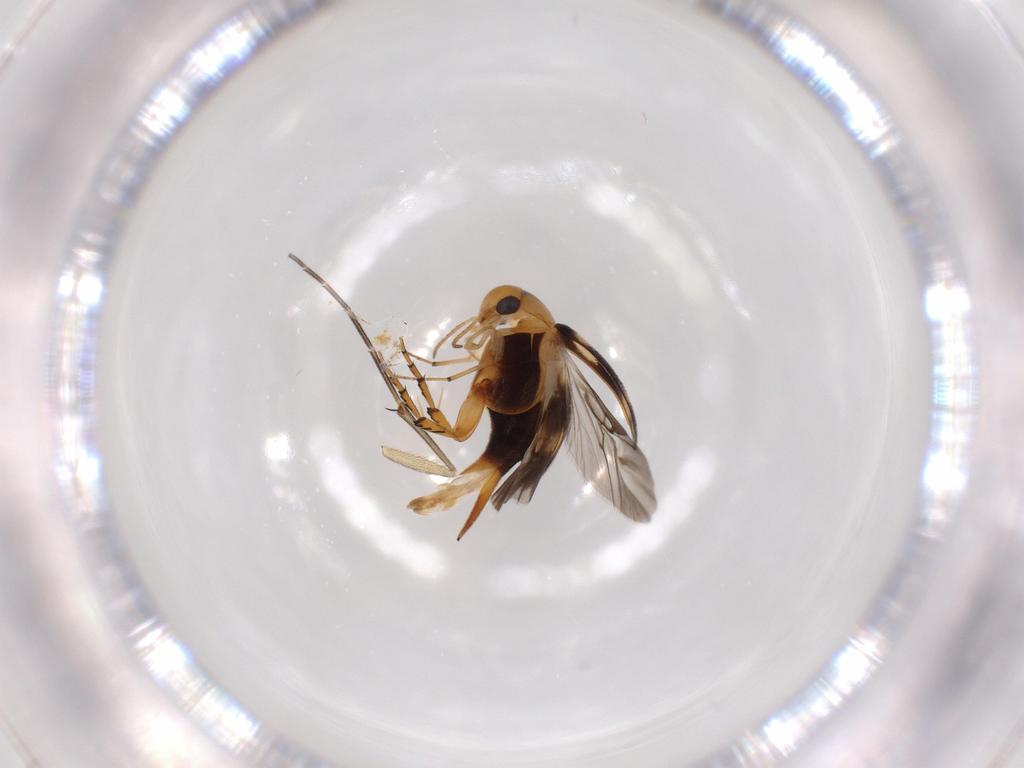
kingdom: Animalia
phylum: Arthropoda
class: Insecta
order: Coleoptera
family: Mordellidae
